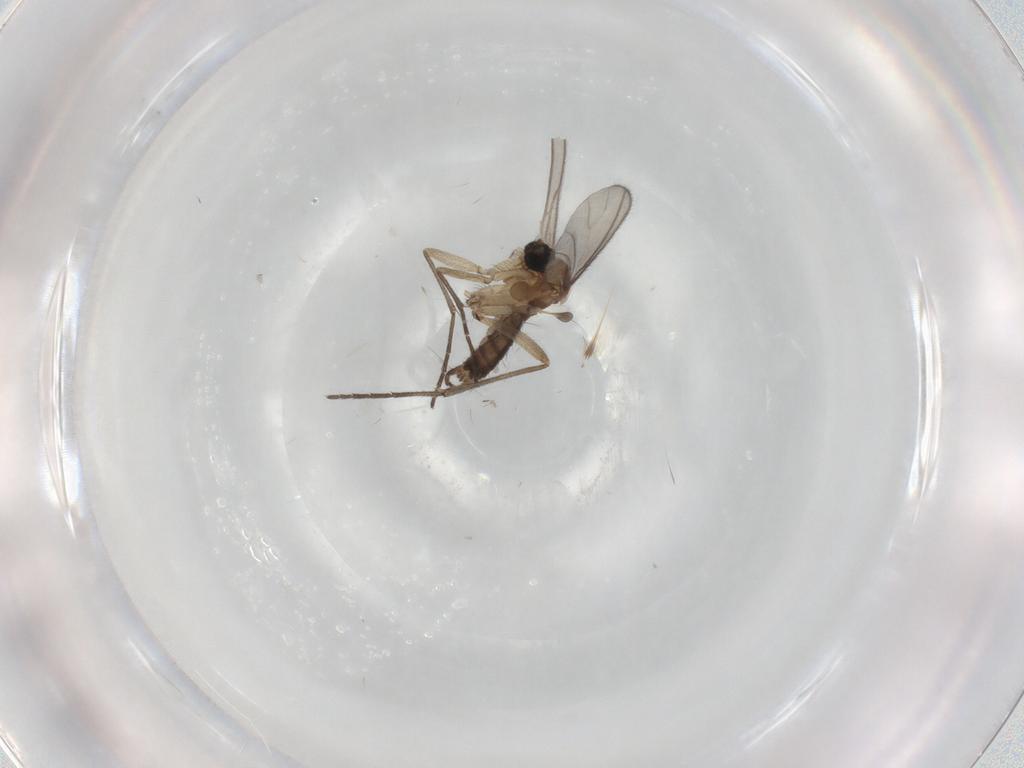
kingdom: Animalia
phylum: Arthropoda
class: Insecta
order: Diptera
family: Sciaridae
